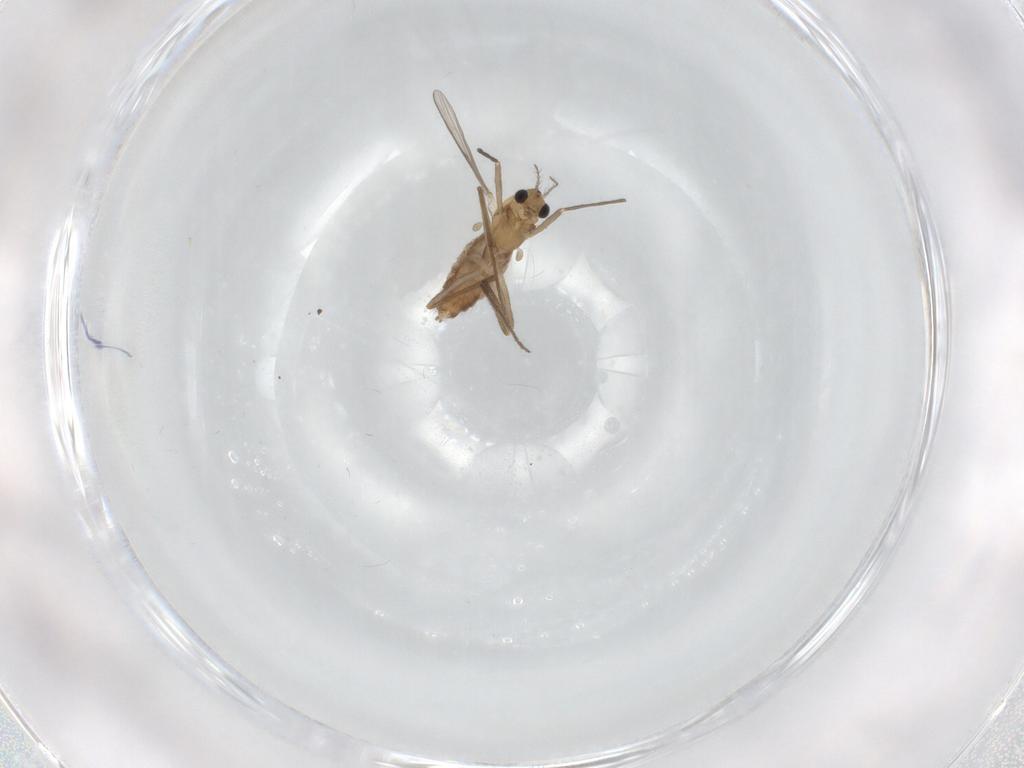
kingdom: Animalia
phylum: Arthropoda
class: Insecta
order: Diptera
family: Chironomidae
